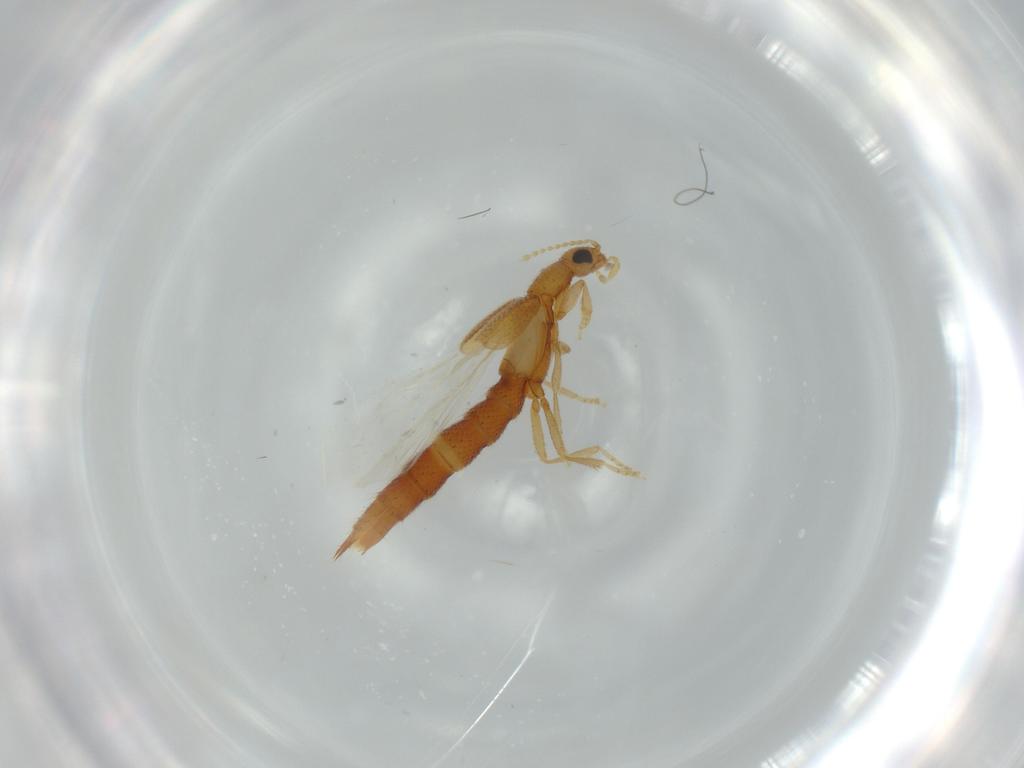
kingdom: Animalia
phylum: Arthropoda
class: Insecta
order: Coleoptera
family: Staphylinidae
